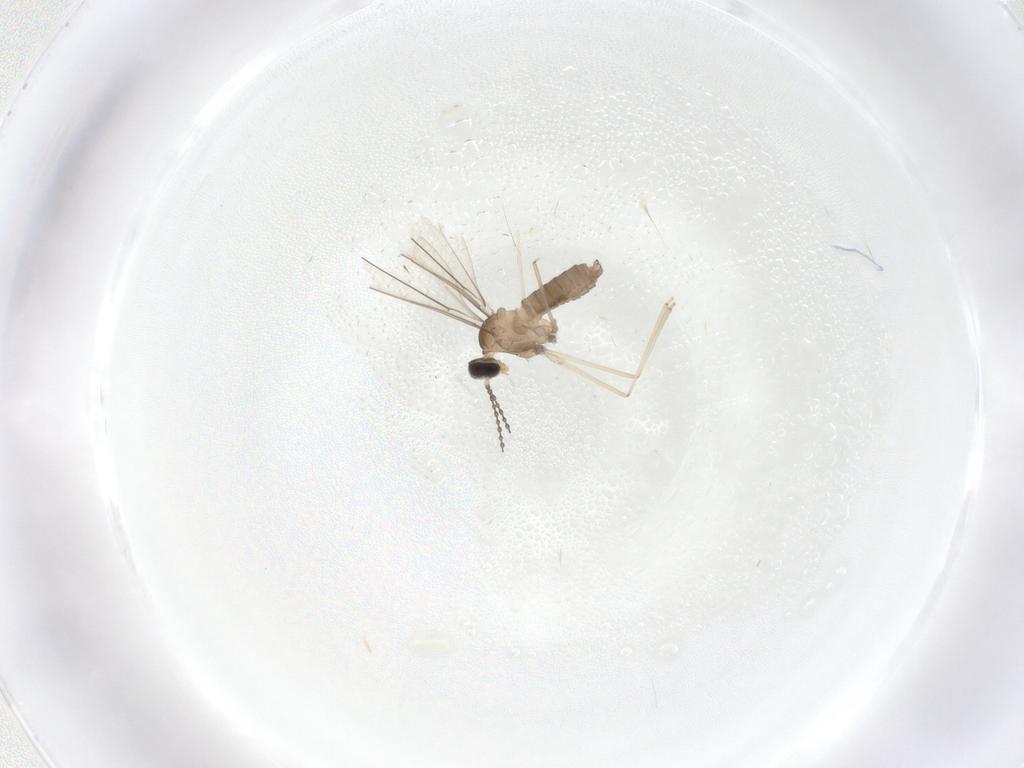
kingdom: Animalia
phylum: Arthropoda
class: Insecta
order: Diptera
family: Cecidomyiidae
